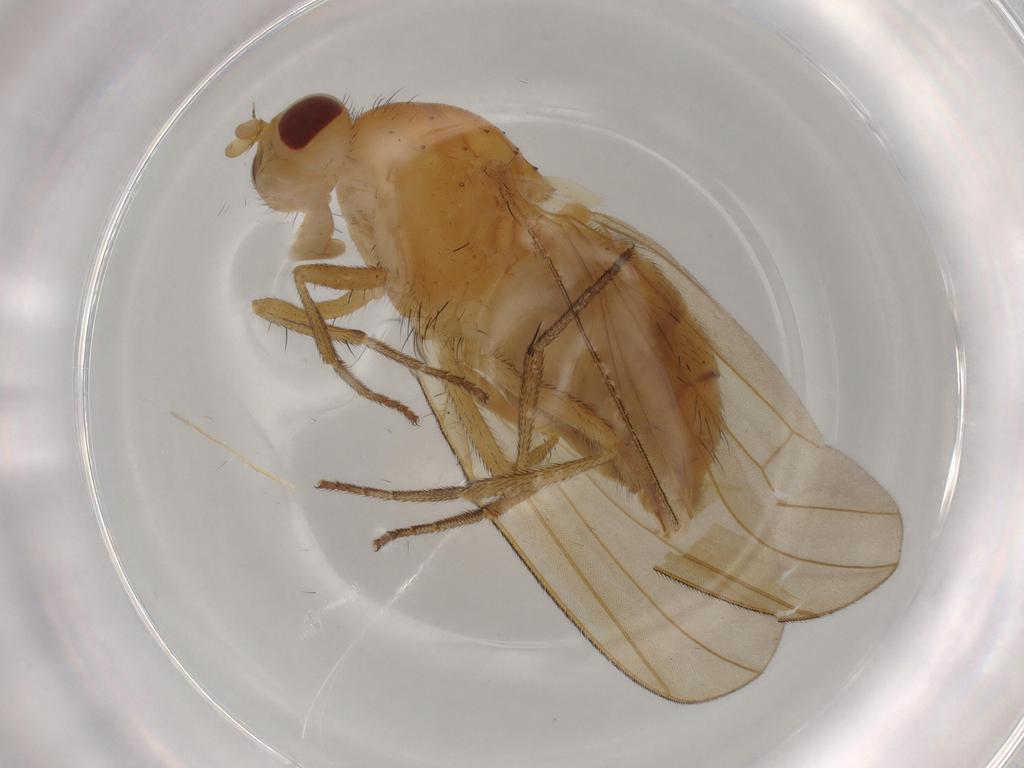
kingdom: Animalia
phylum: Arthropoda
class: Insecta
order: Diptera
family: Sciaridae
